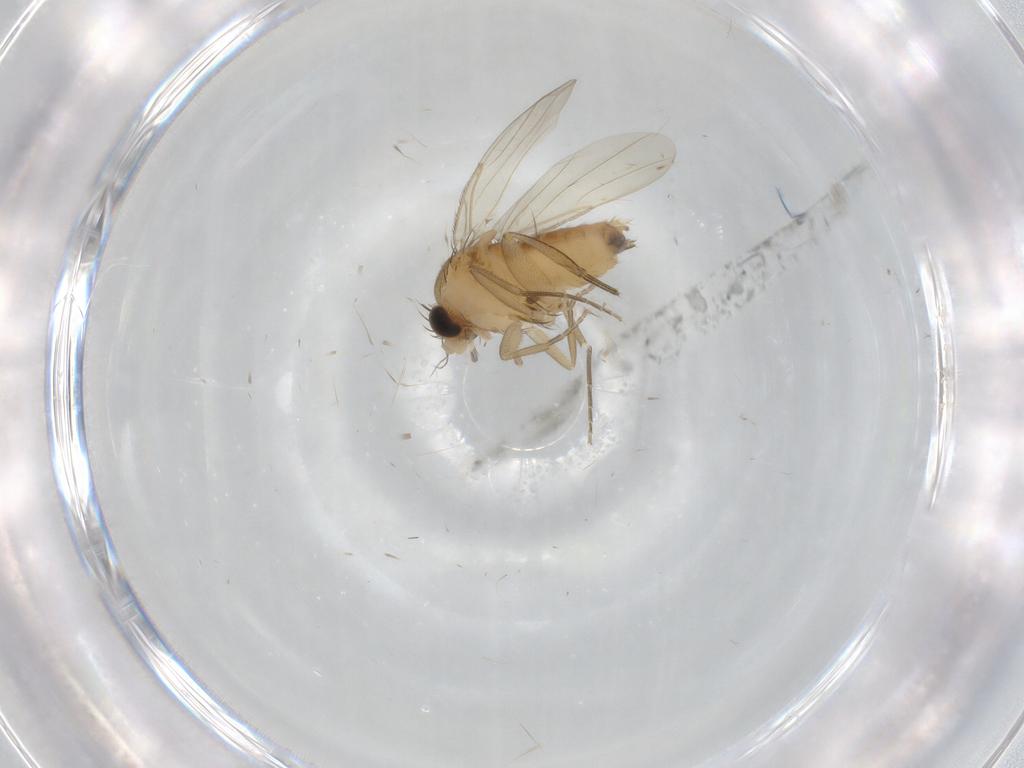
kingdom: Animalia
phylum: Arthropoda
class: Insecta
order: Diptera
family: Phoridae
